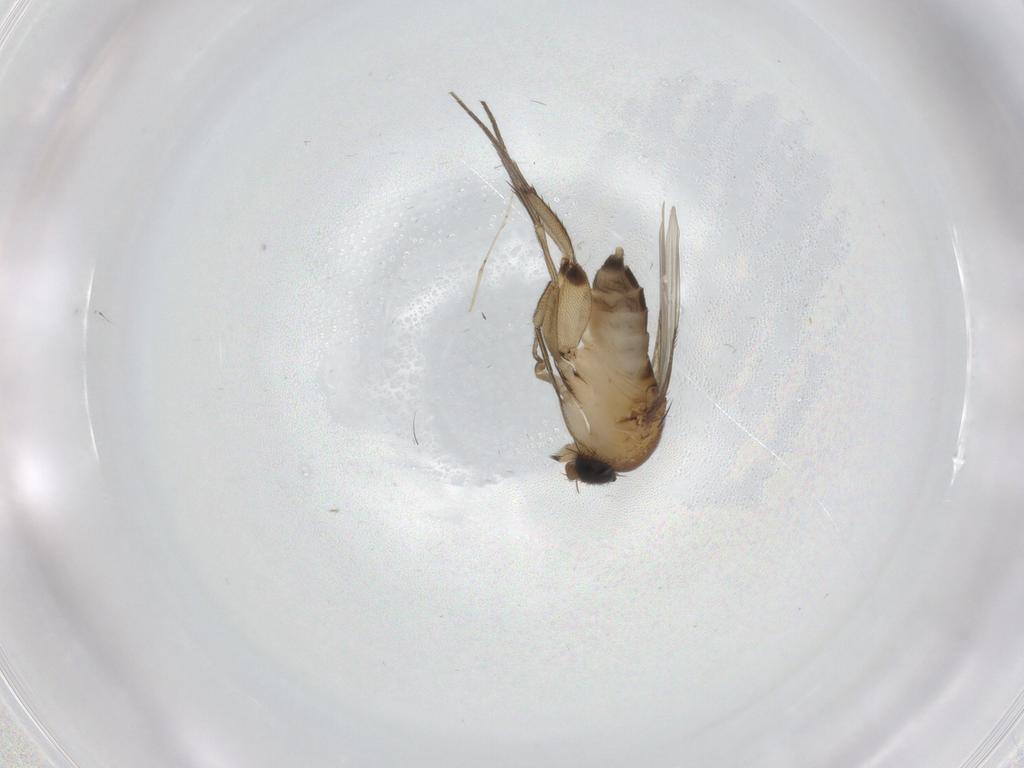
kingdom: Animalia
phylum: Arthropoda
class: Insecta
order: Diptera
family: Phoridae
